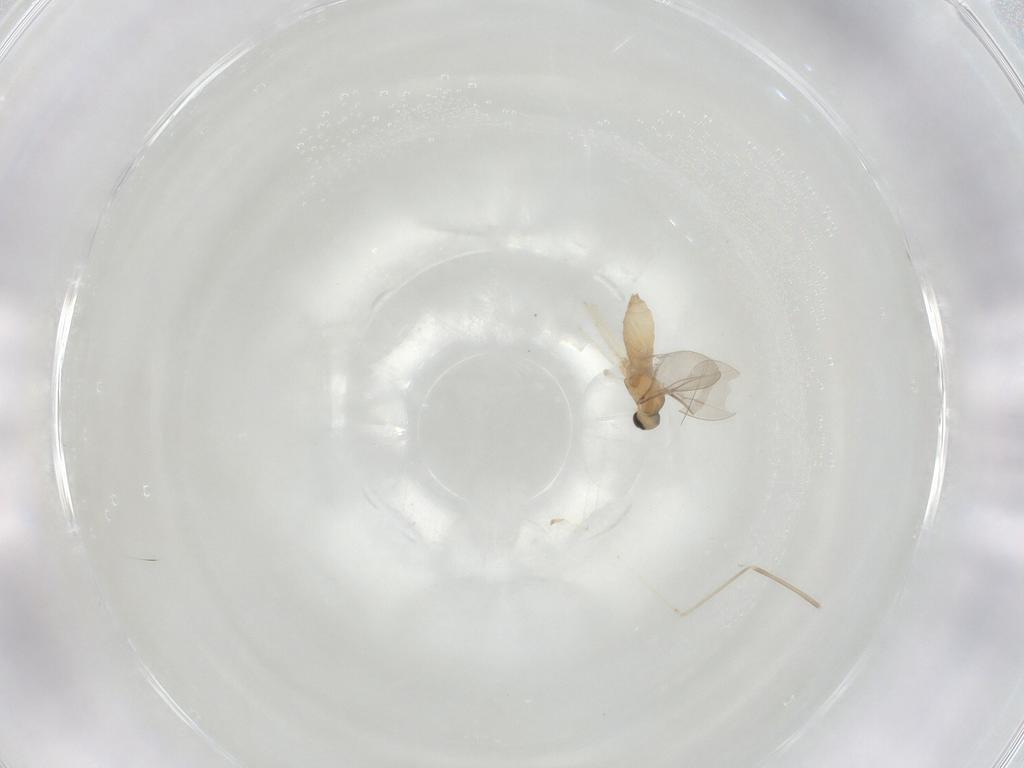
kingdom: Animalia
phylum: Arthropoda
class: Insecta
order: Diptera
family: Cecidomyiidae
